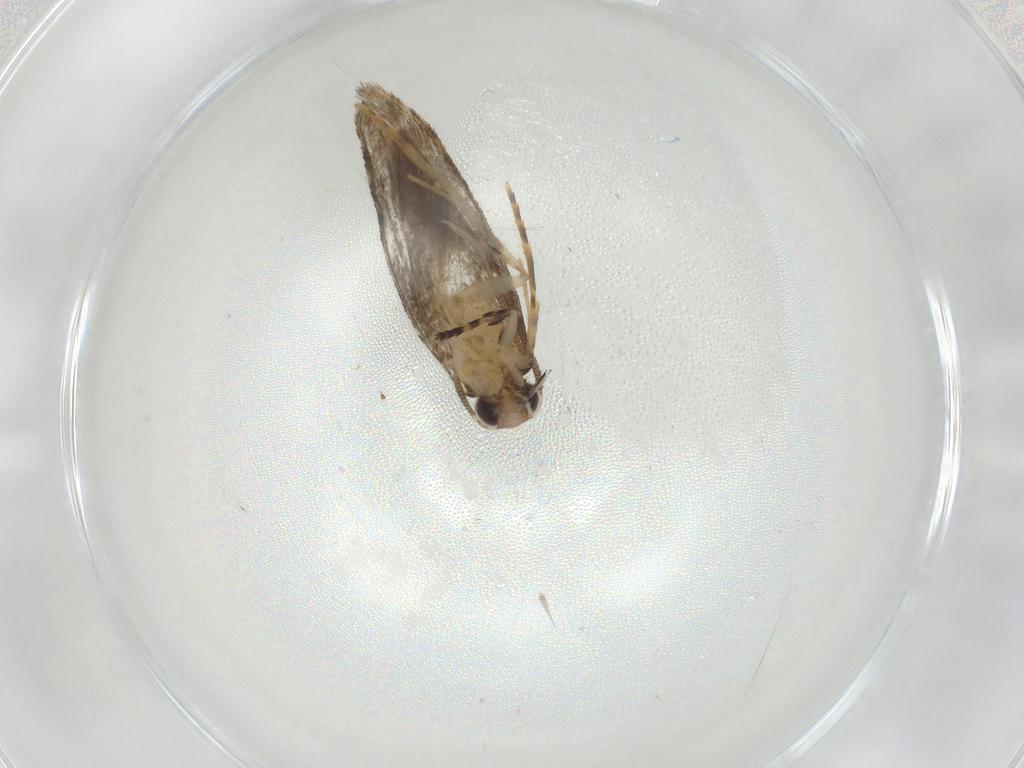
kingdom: Animalia
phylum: Arthropoda
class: Insecta
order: Lepidoptera
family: Tineidae
